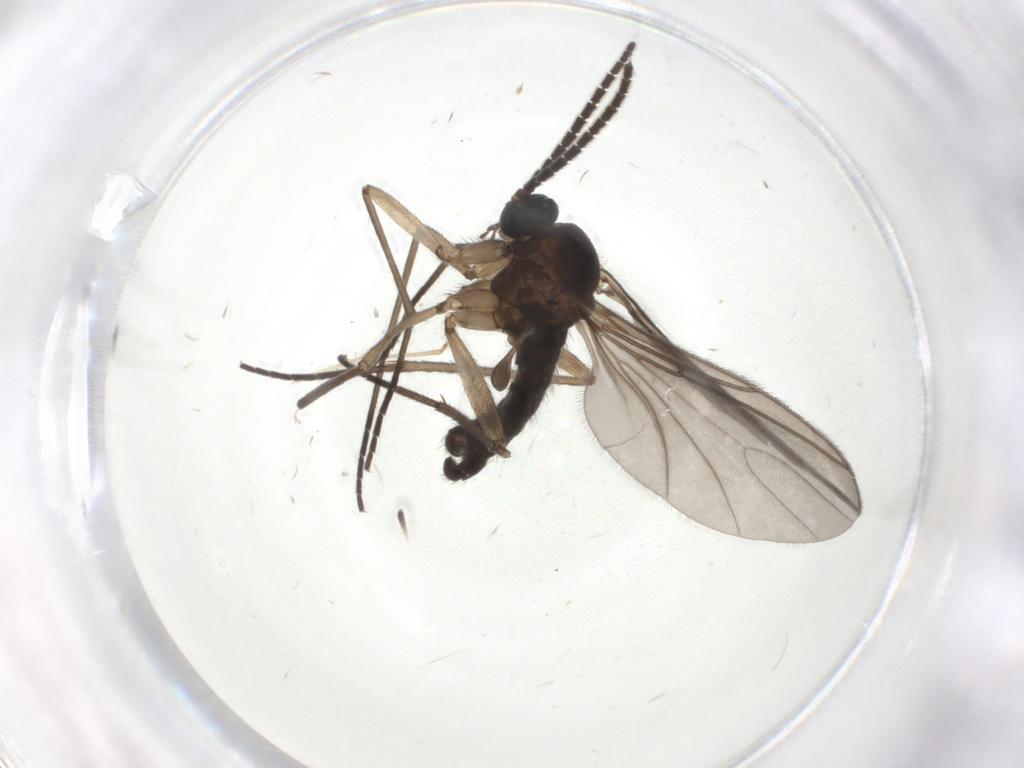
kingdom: Animalia
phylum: Arthropoda
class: Insecta
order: Diptera
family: Sciaridae
